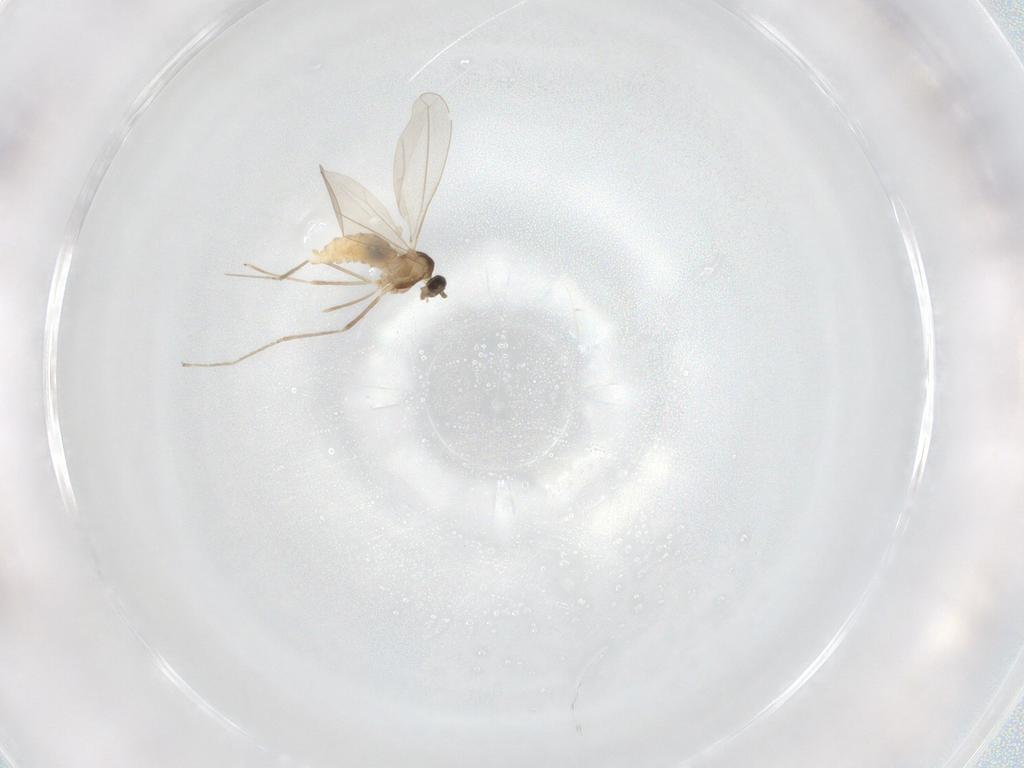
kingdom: Animalia
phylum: Arthropoda
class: Insecta
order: Diptera
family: Cecidomyiidae
